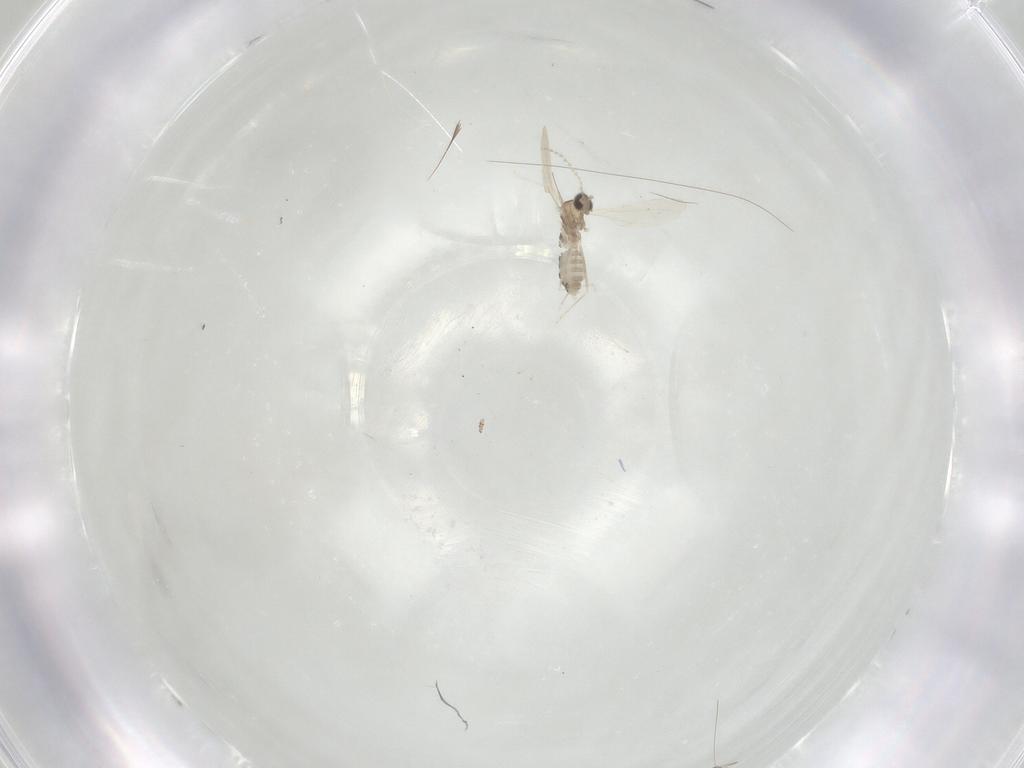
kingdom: Animalia
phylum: Arthropoda
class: Insecta
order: Diptera
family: Cecidomyiidae
